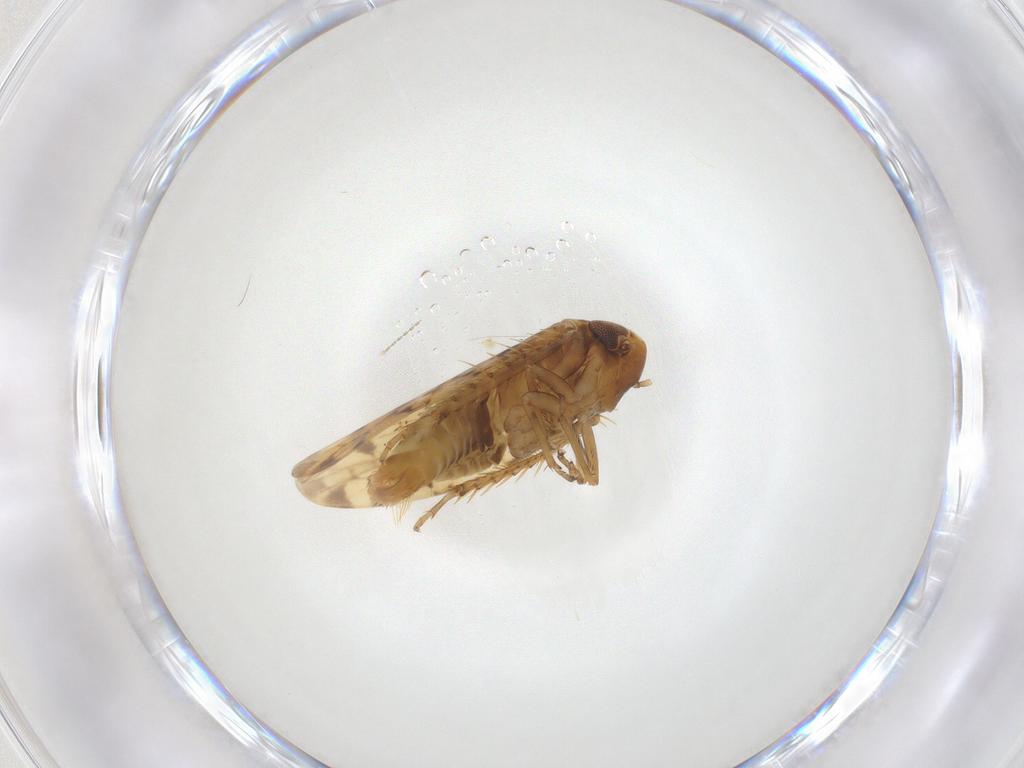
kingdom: Animalia
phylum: Arthropoda
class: Insecta
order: Hemiptera
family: Cicadellidae
